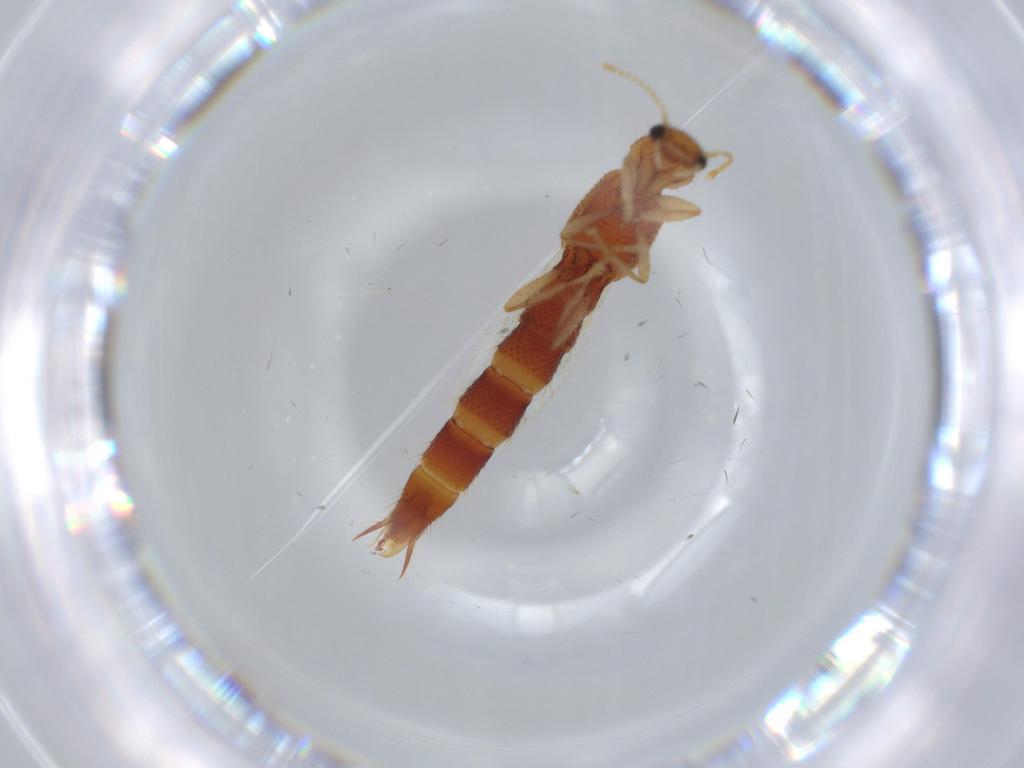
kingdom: Animalia
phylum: Arthropoda
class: Insecta
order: Coleoptera
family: Staphylinidae
